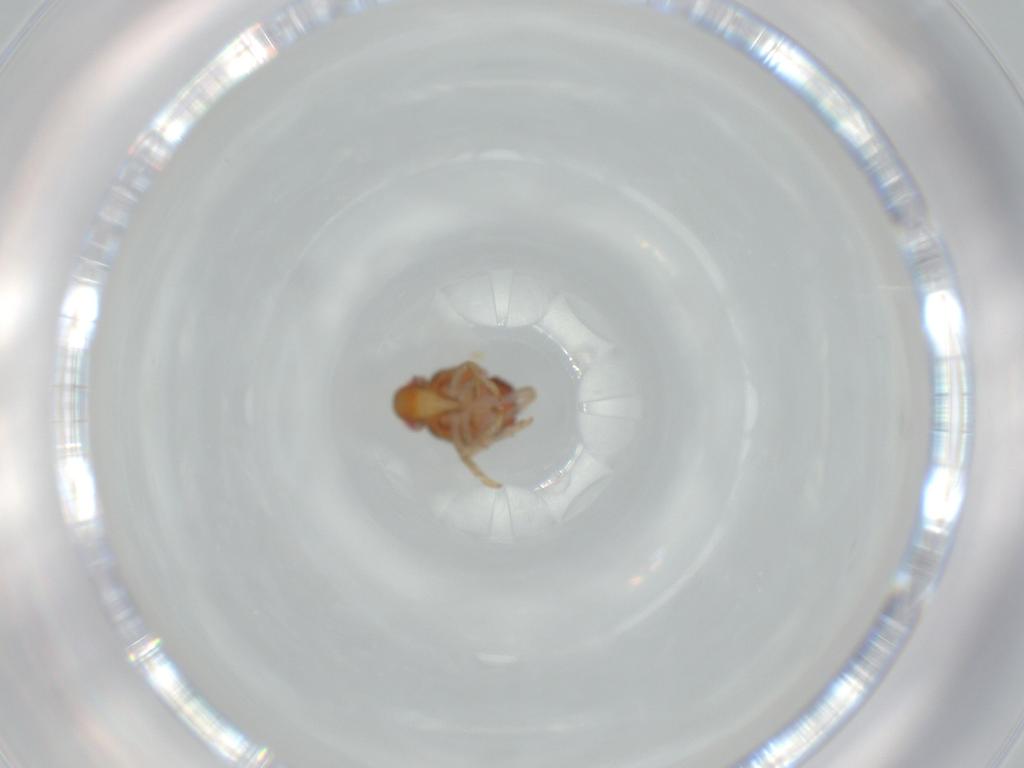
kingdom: Animalia
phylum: Arthropoda
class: Insecta
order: Hemiptera
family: Issidae
